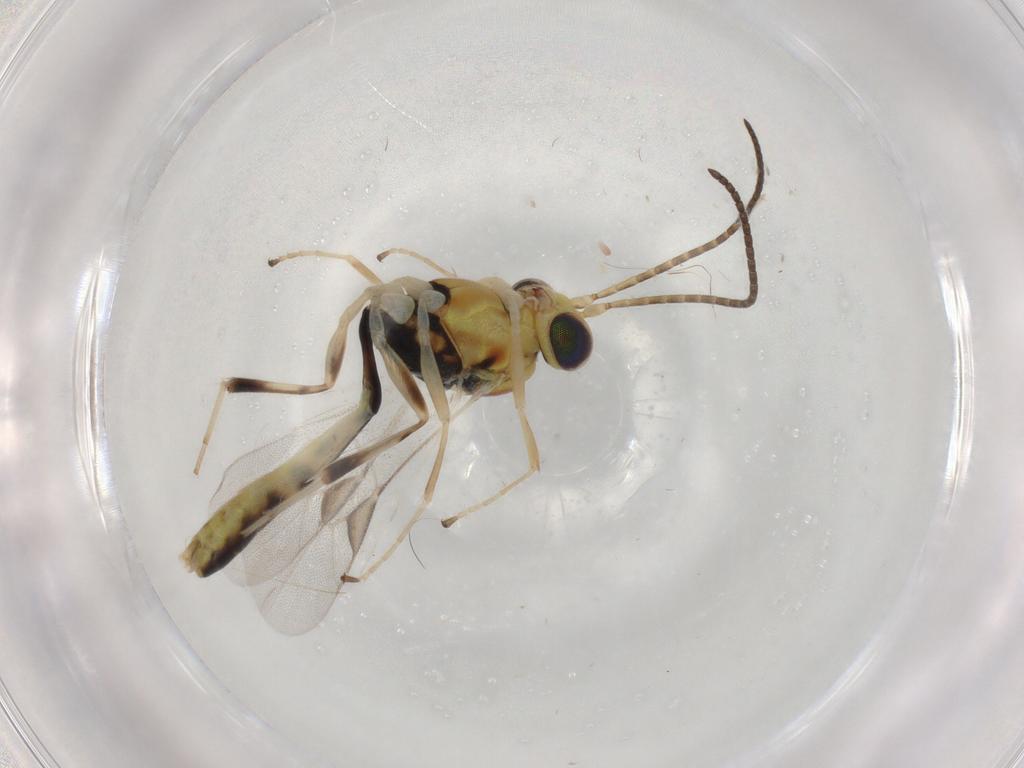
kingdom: Animalia
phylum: Arthropoda
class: Insecta
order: Hymenoptera
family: Ichneumonidae
